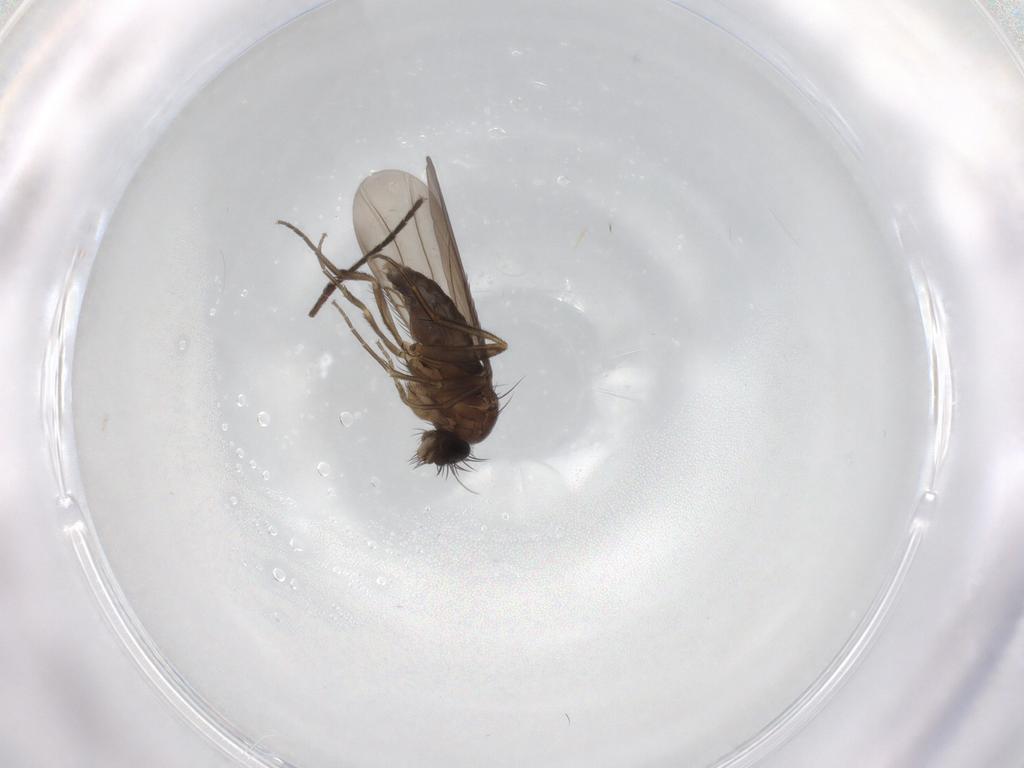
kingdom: Animalia
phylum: Arthropoda
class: Insecta
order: Diptera
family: Phoridae
